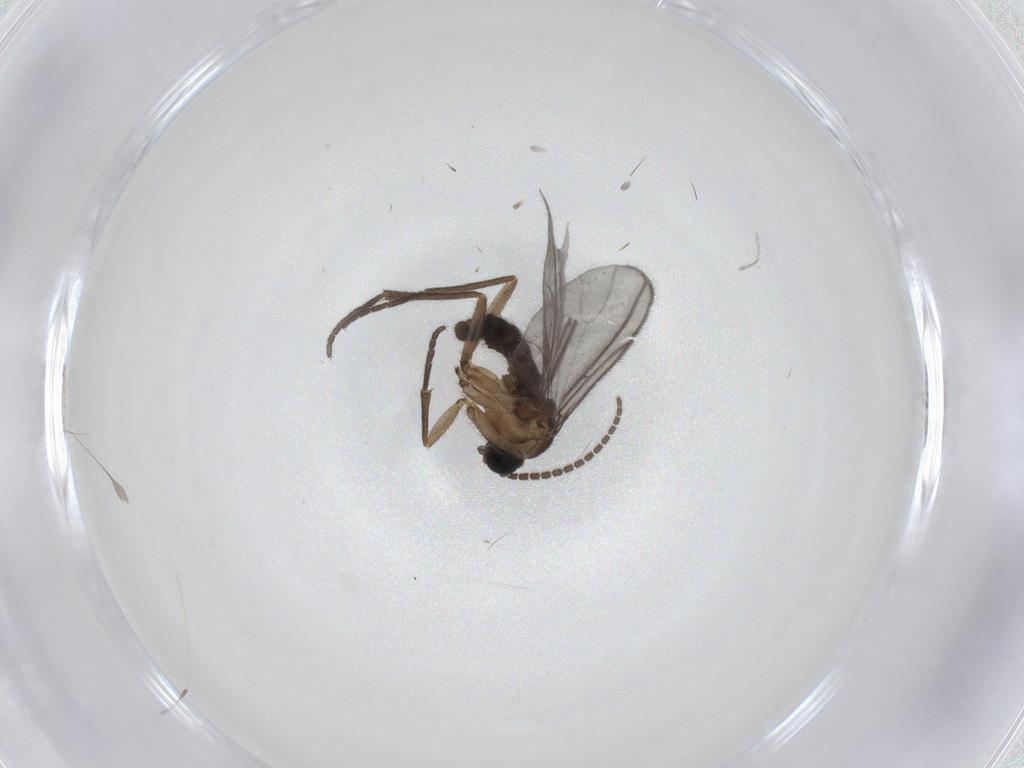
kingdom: Animalia
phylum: Arthropoda
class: Insecta
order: Diptera
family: Sciaridae
